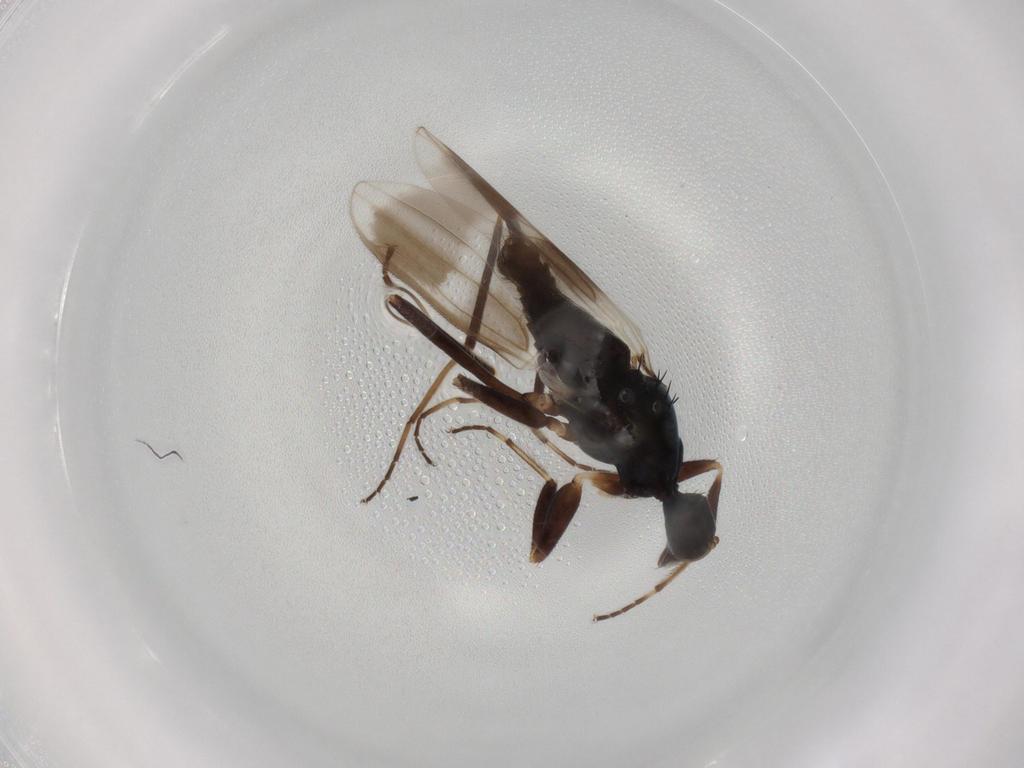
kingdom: Animalia
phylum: Arthropoda
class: Insecta
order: Diptera
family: Hybotidae
